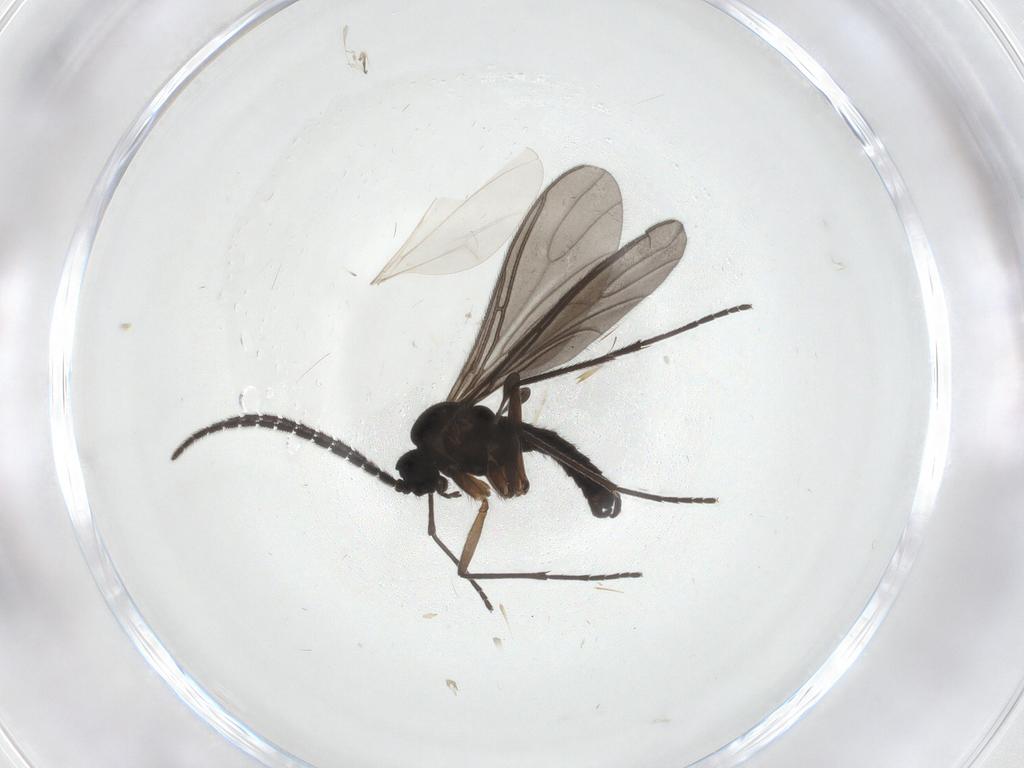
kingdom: Animalia
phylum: Arthropoda
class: Insecta
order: Diptera
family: Sciaridae
